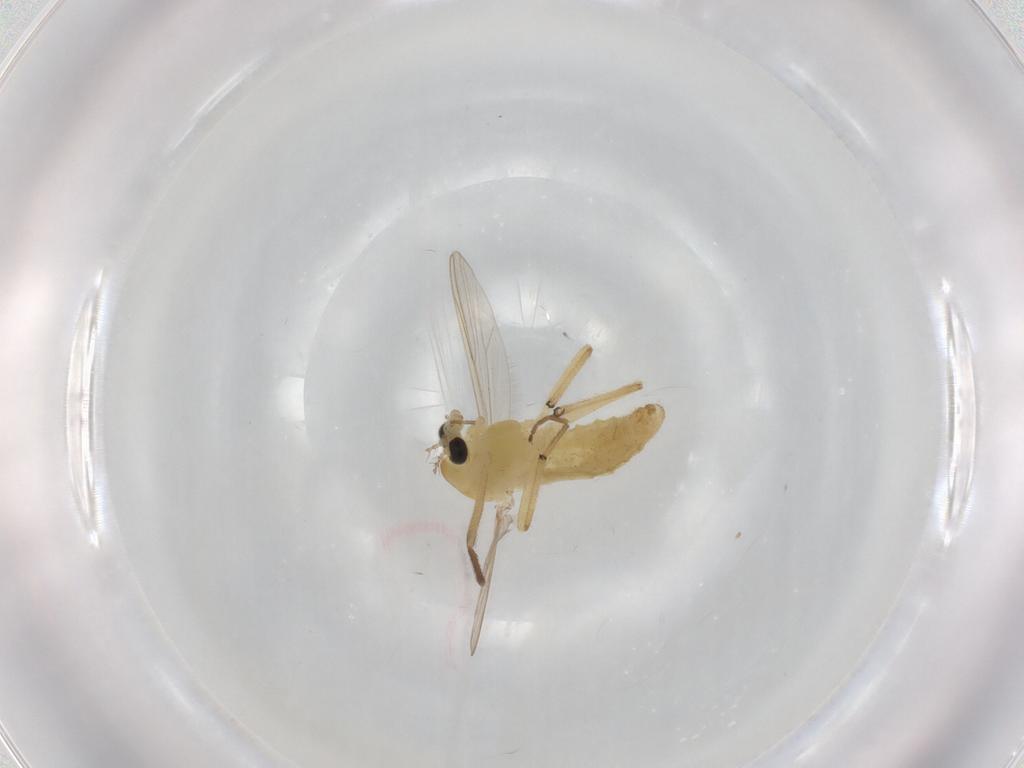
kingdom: Animalia
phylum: Arthropoda
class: Insecta
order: Diptera
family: Chironomidae
